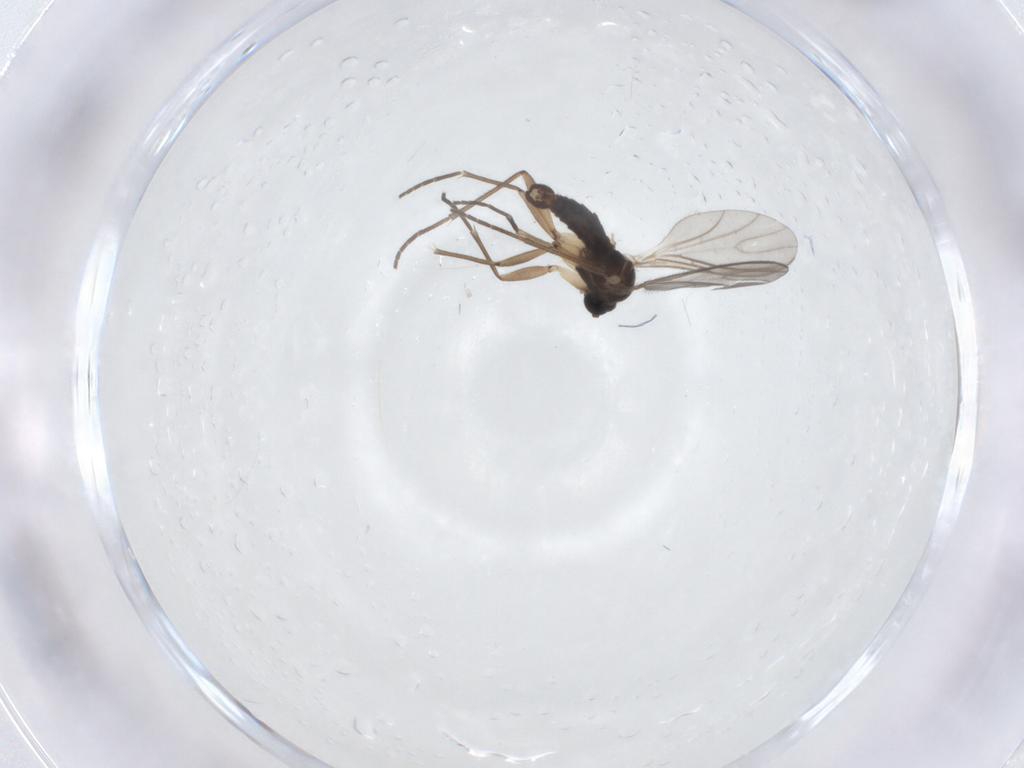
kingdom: Animalia
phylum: Arthropoda
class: Insecta
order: Diptera
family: Sciaridae
